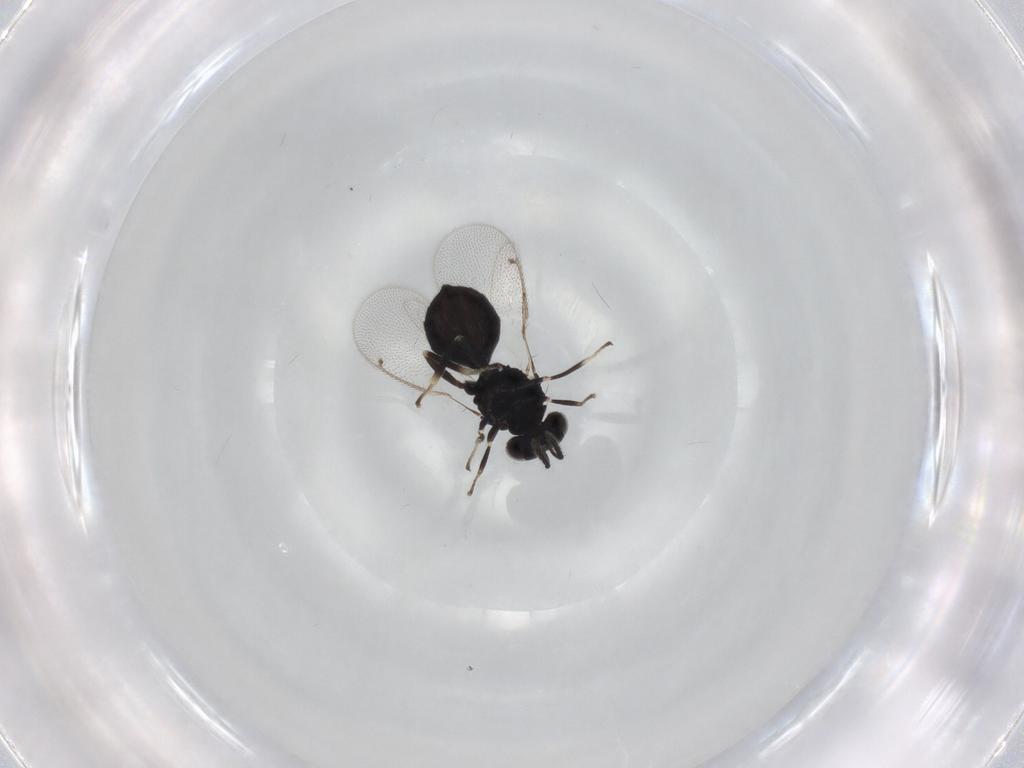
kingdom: Animalia
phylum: Arthropoda
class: Insecta
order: Hymenoptera
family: Eulophidae
